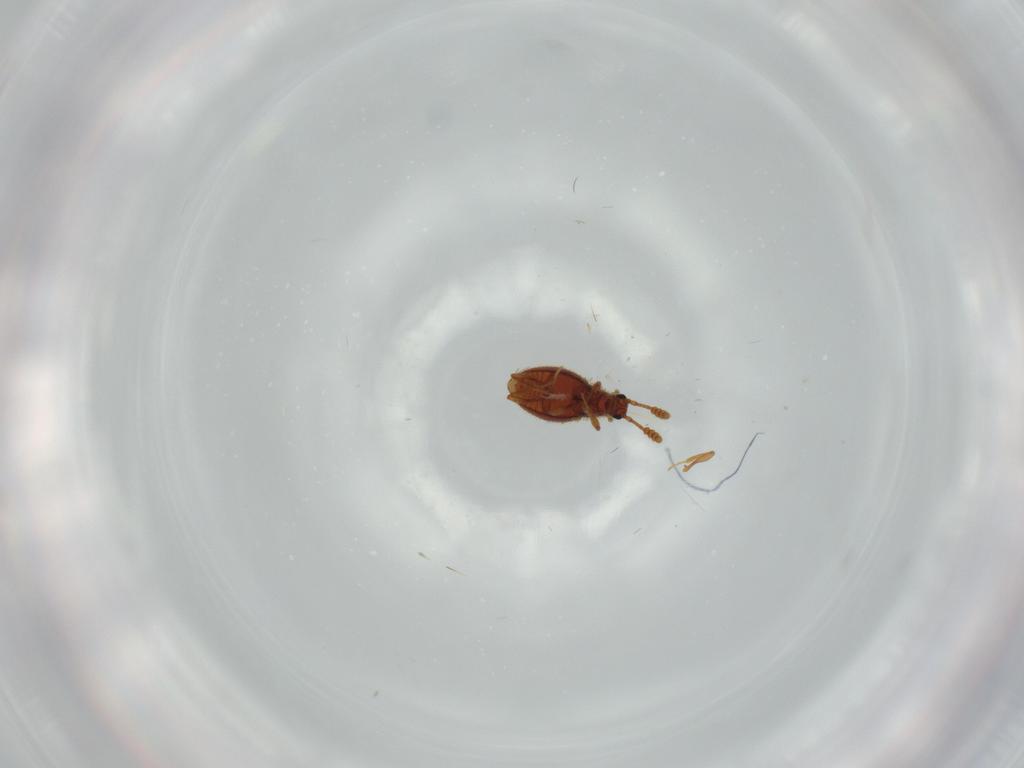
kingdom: Animalia
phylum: Arthropoda
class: Insecta
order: Coleoptera
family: Staphylinidae
